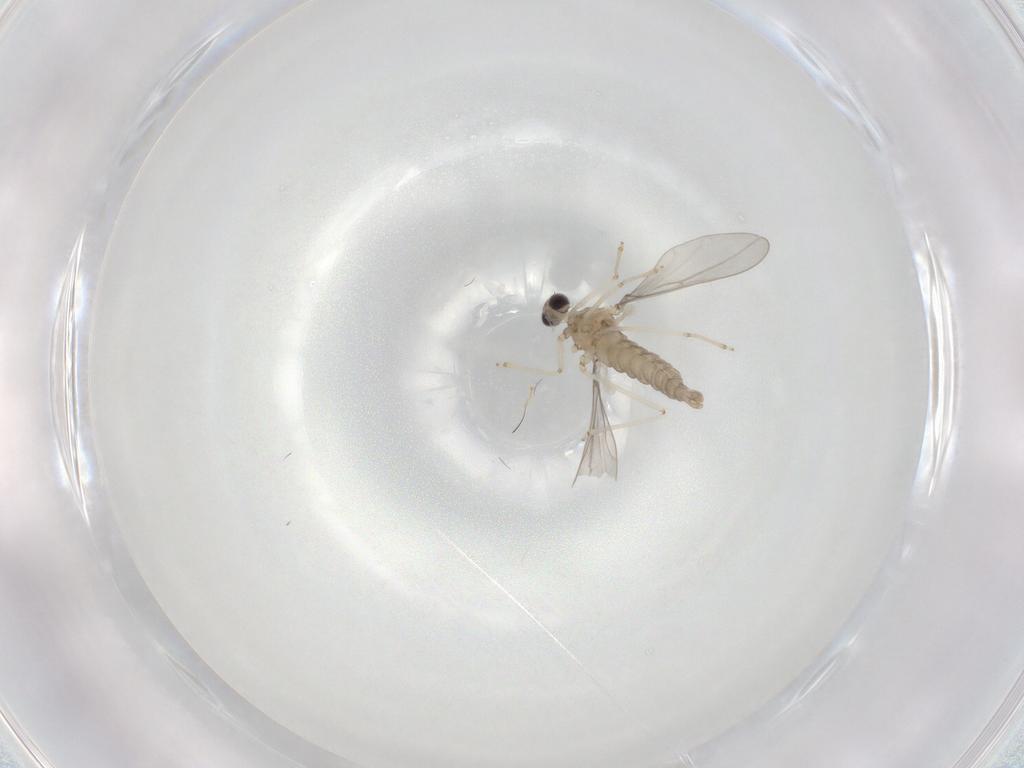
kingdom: Animalia
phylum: Arthropoda
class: Insecta
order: Diptera
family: Cecidomyiidae
